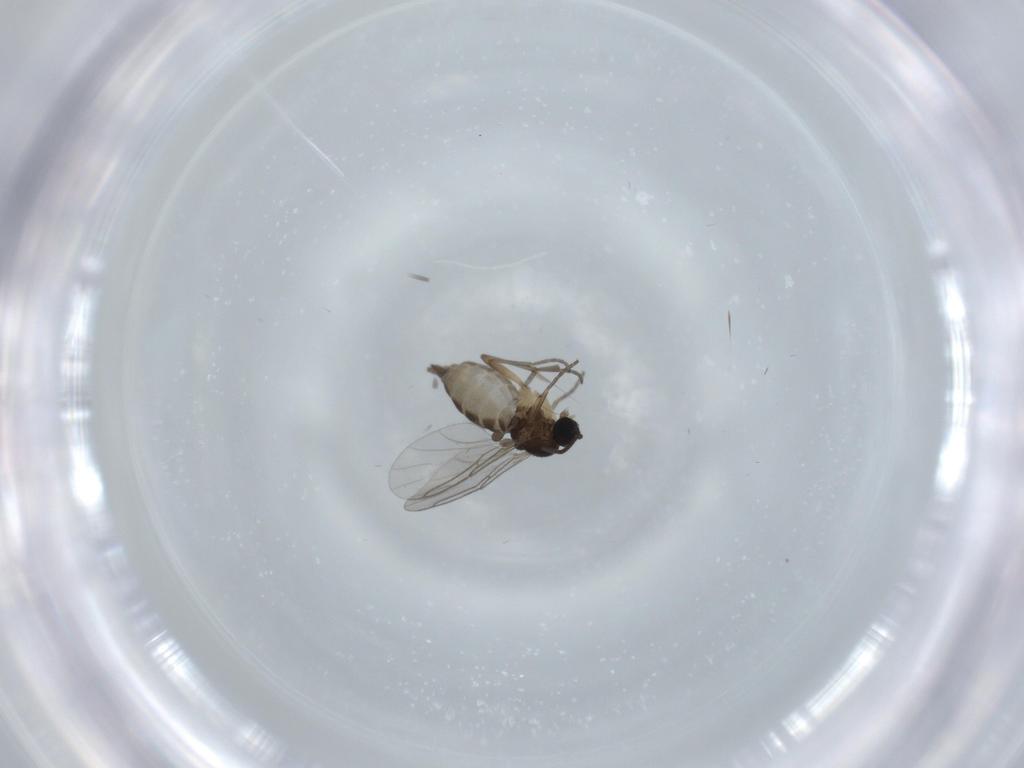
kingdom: Animalia
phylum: Arthropoda
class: Insecta
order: Diptera
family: Sciaridae
